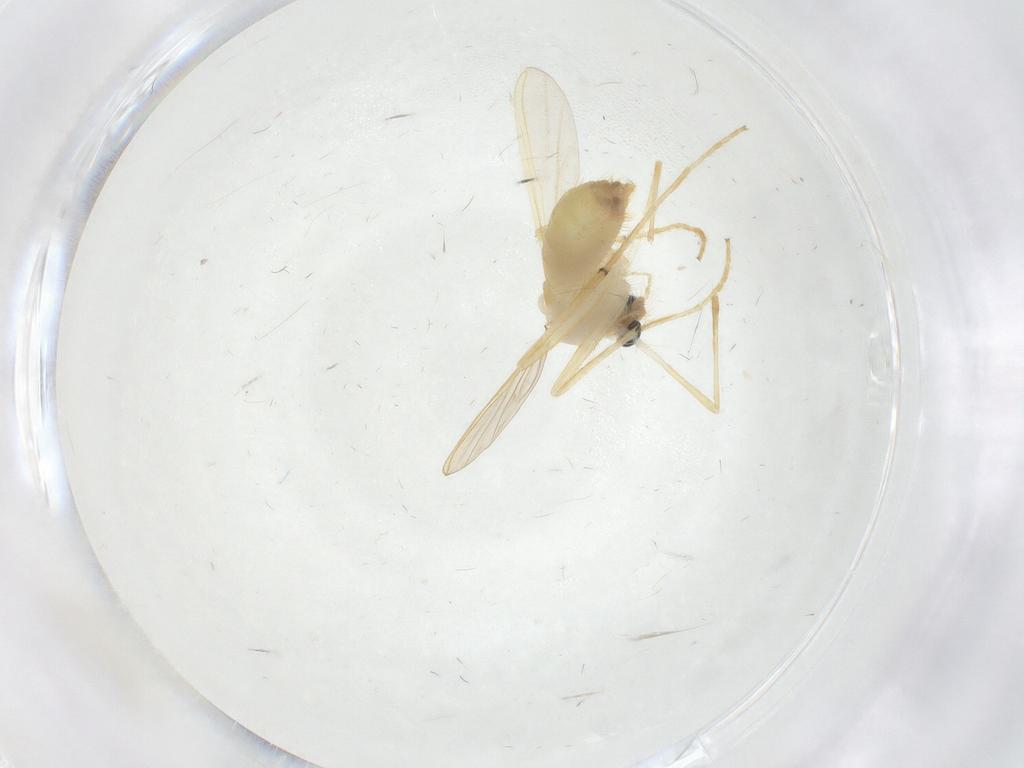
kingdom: Animalia
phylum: Arthropoda
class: Insecta
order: Diptera
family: Chironomidae
